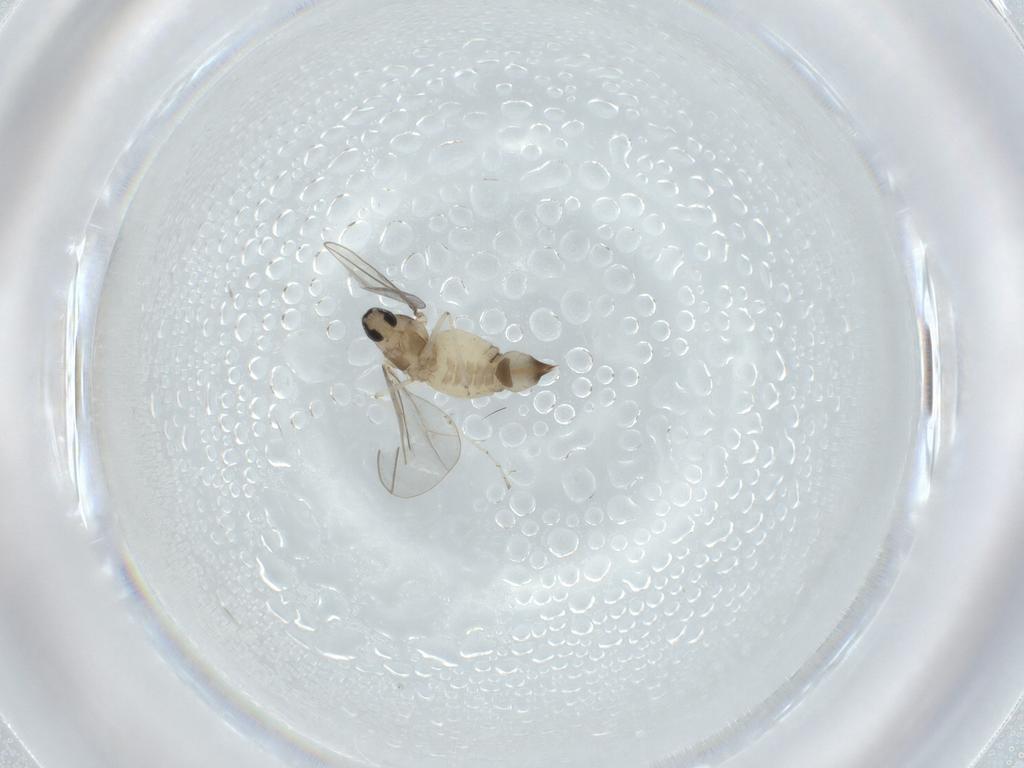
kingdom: Animalia
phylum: Arthropoda
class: Insecta
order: Diptera
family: Cecidomyiidae
